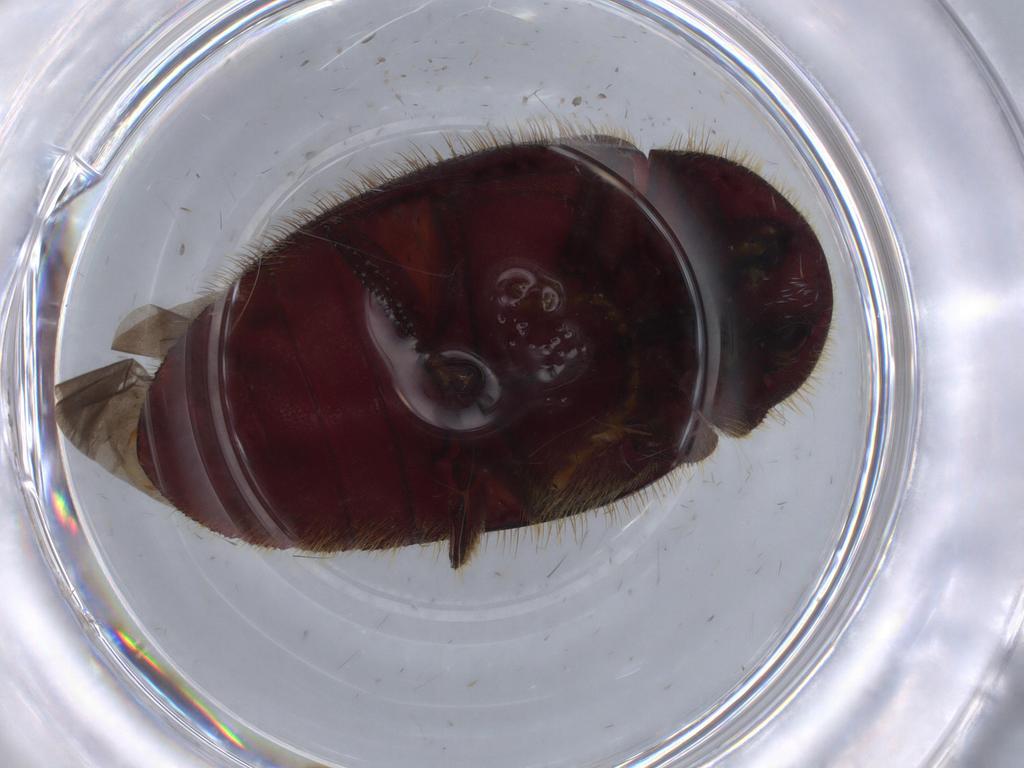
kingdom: Animalia
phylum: Arthropoda
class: Insecta
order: Coleoptera
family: Chelonariidae
